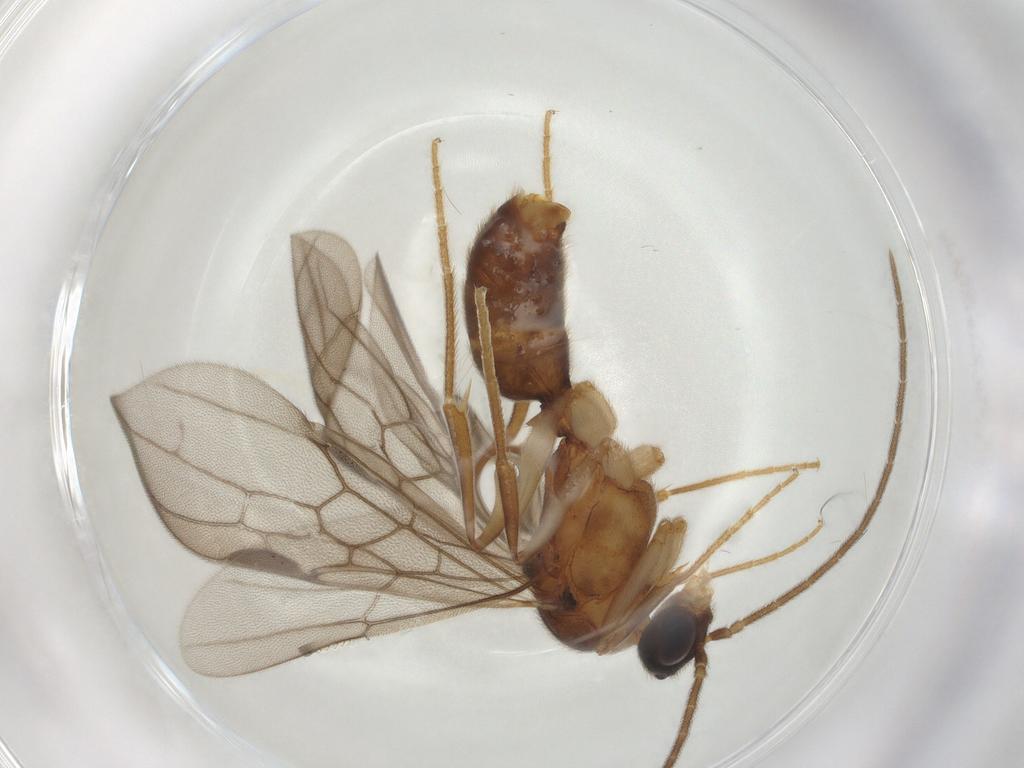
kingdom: Animalia
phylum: Arthropoda
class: Insecta
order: Hymenoptera
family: Formicidae
